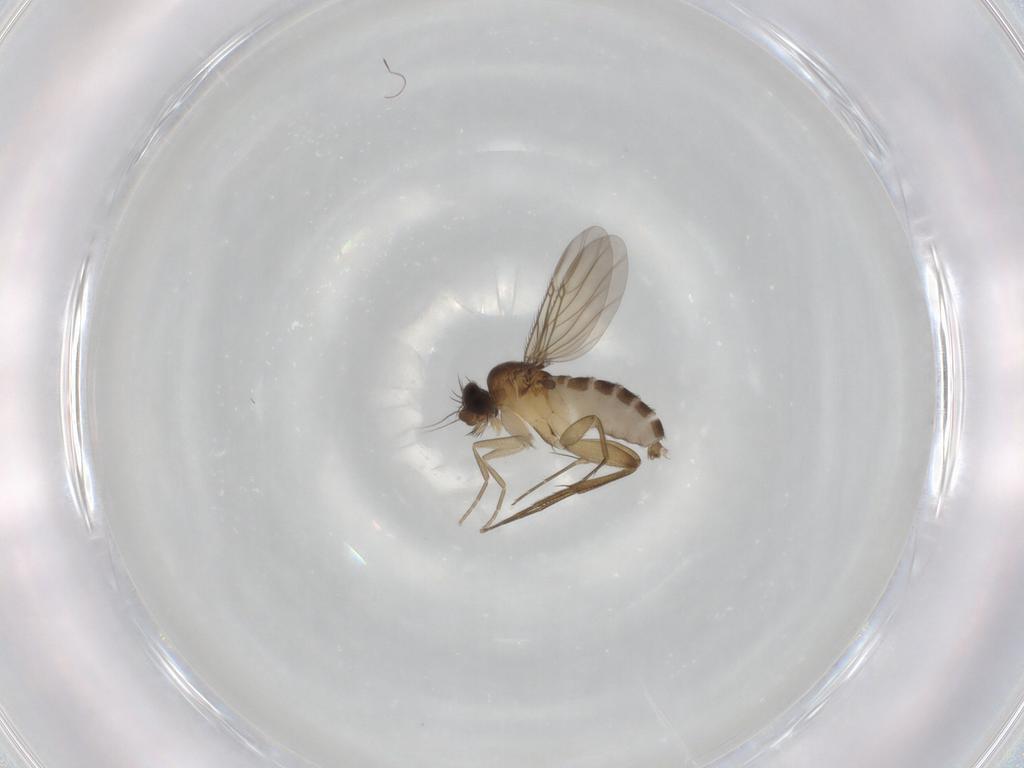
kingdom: Animalia
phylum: Arthropoda
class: Insecta
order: Diptera
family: Phoridae
